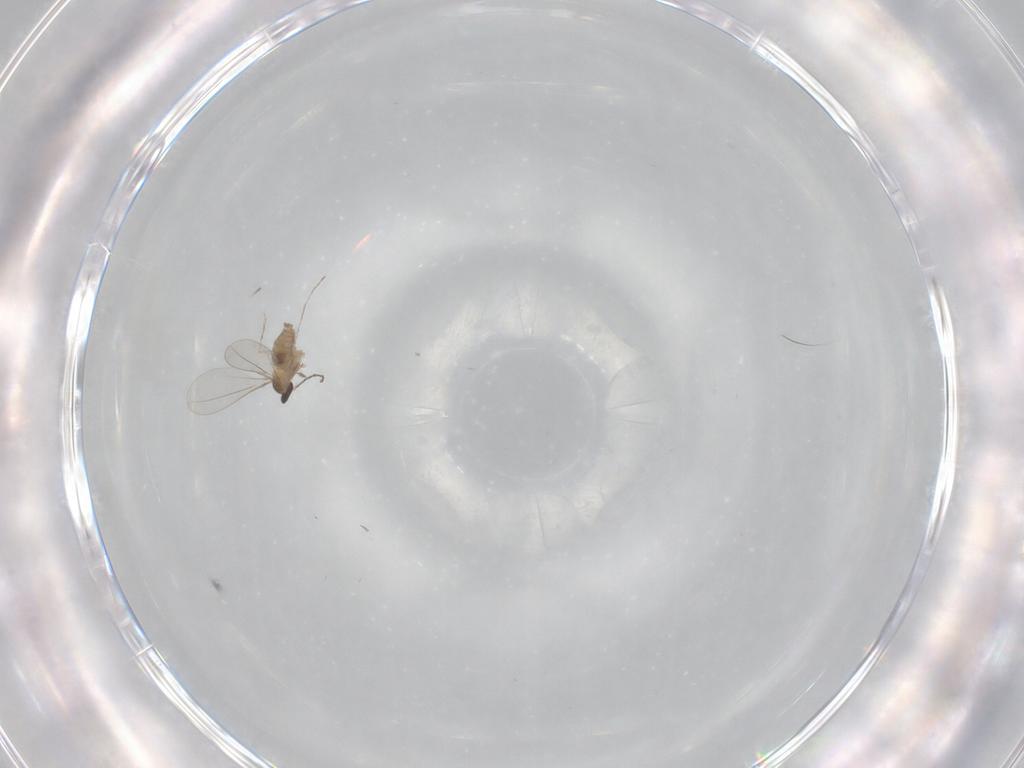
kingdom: Animalia
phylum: Arthropoda
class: Insecta
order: Diptera
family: Cecidomyiidae
